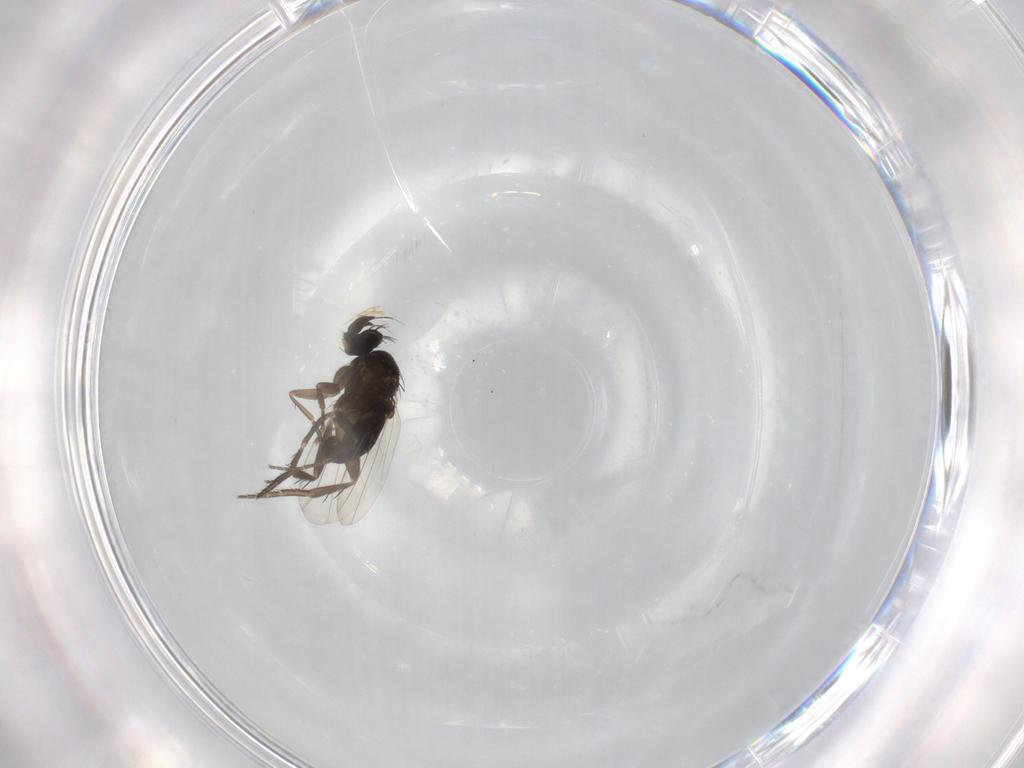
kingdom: Animalia
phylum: Arthropoda
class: Insecta
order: Diptera
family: Phoridae
